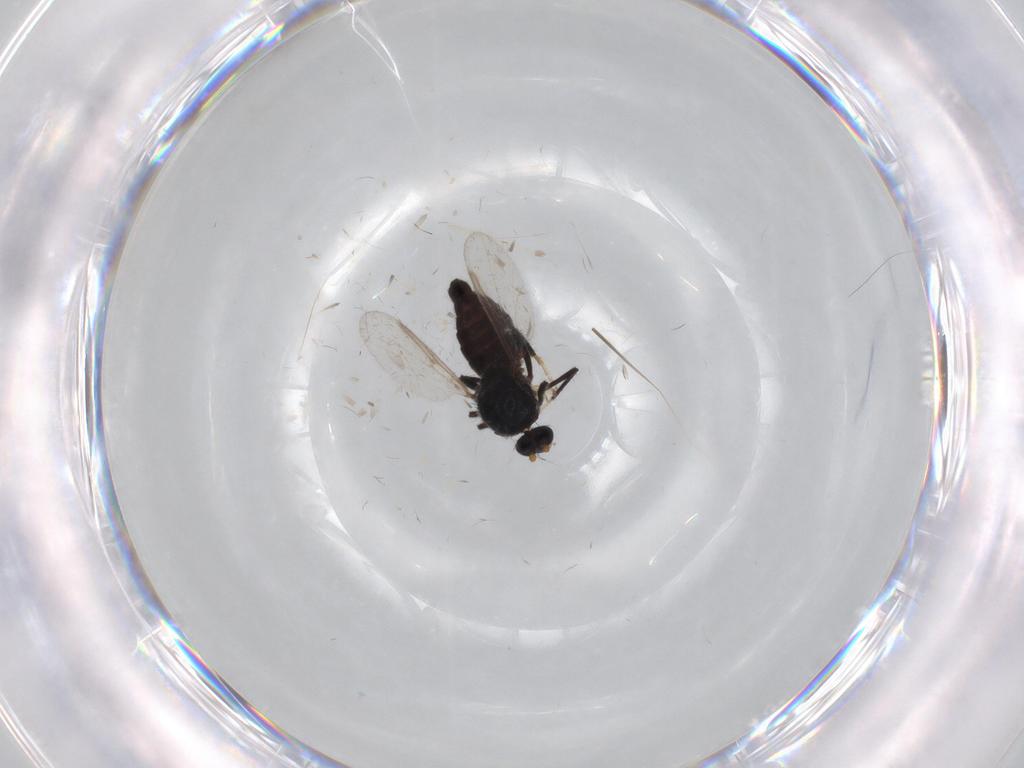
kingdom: Animalia
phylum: Arthropoda
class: Insecta
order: Diptera
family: Ceratopogonidae
